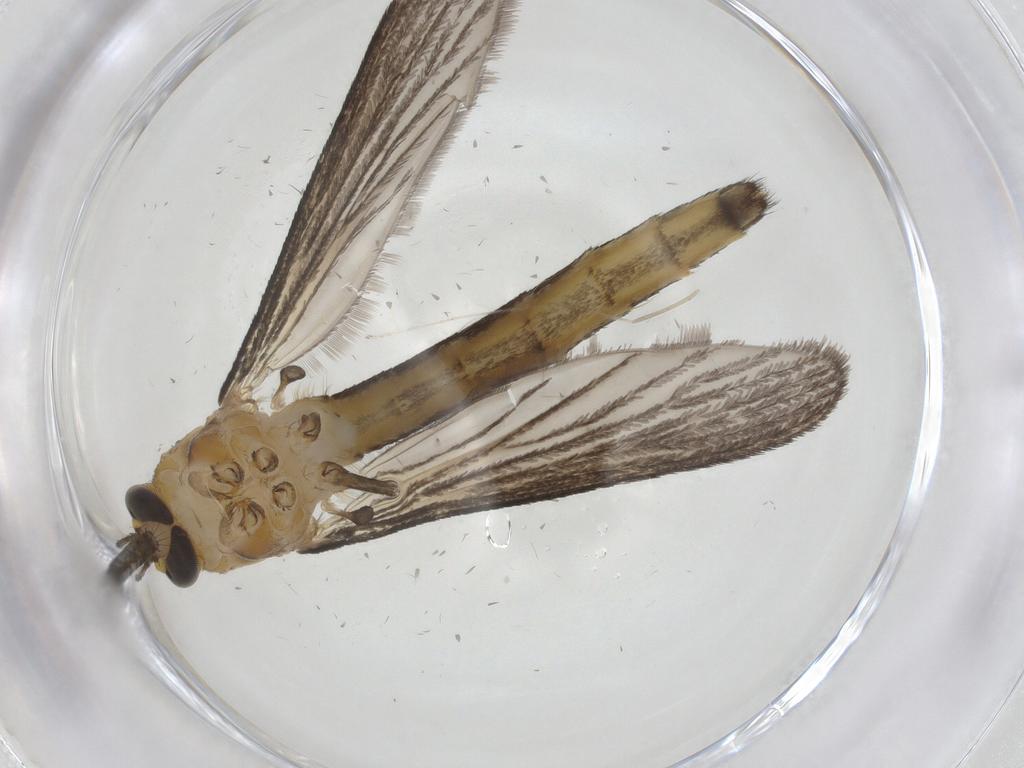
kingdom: Animalia
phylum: Arthropoda
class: Insecta
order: Diptera
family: Culicidae
